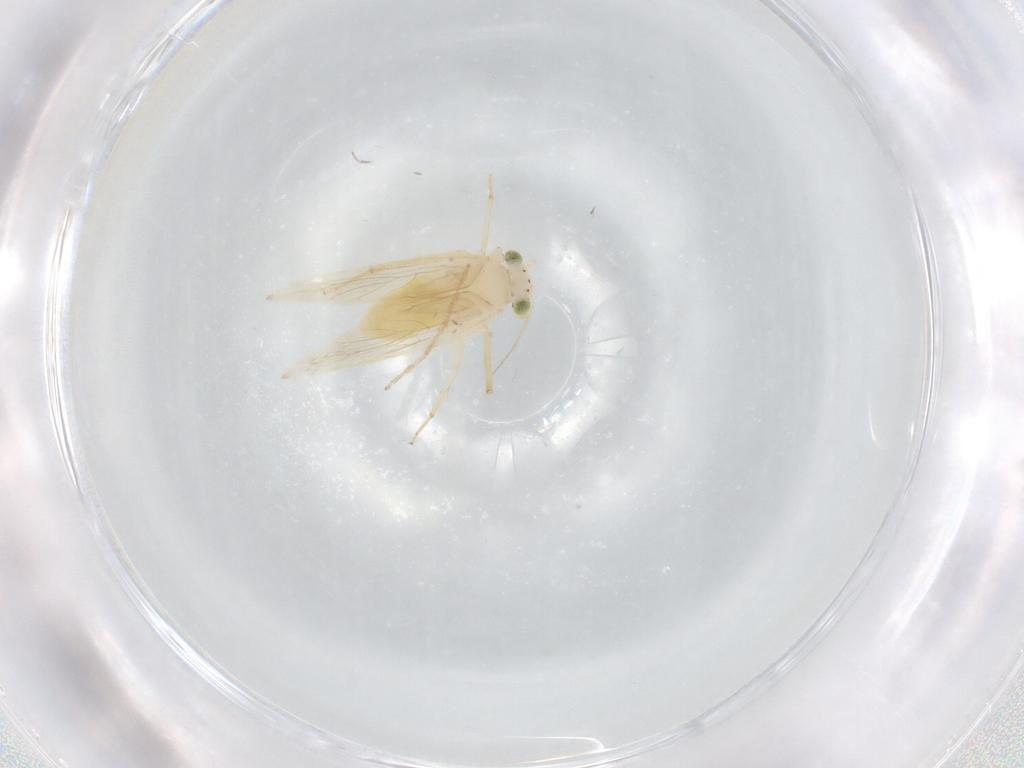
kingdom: Animalia
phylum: Arthropoda
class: Insecta
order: Psocodea
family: Lepidopsocidae
